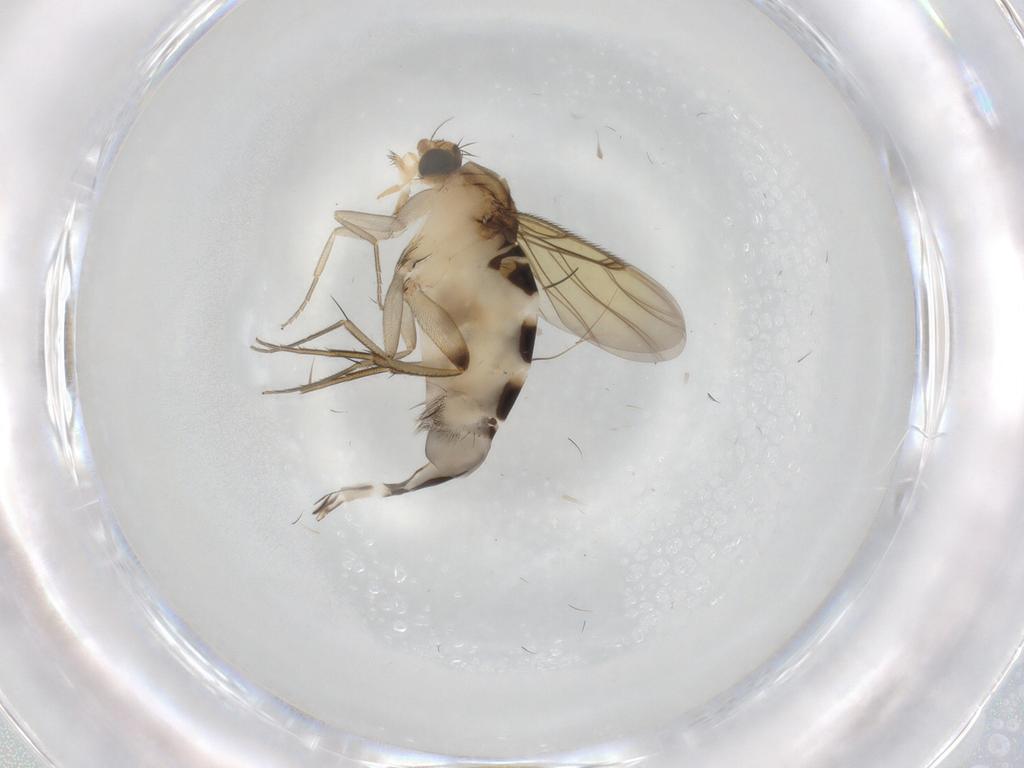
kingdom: Animalia
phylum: Arthropoda
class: Insecta
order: Diptera
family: Phoridae
